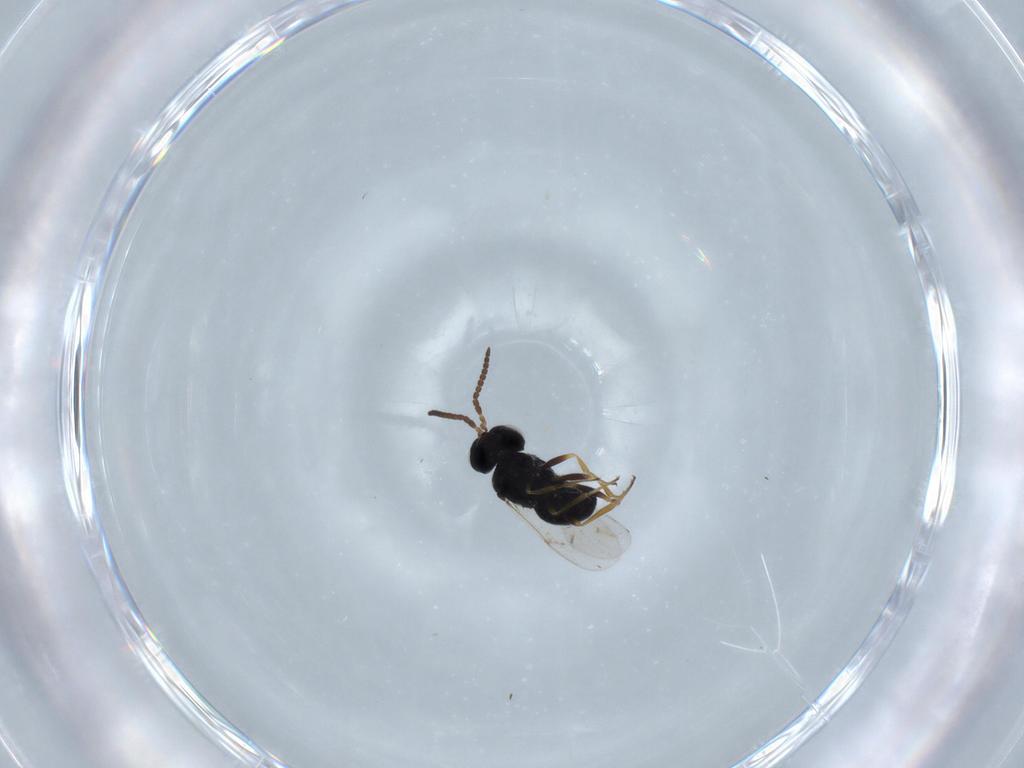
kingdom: Animalia
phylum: Arthropoda
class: Insecta
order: Hymenoptera
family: Scelionidae
